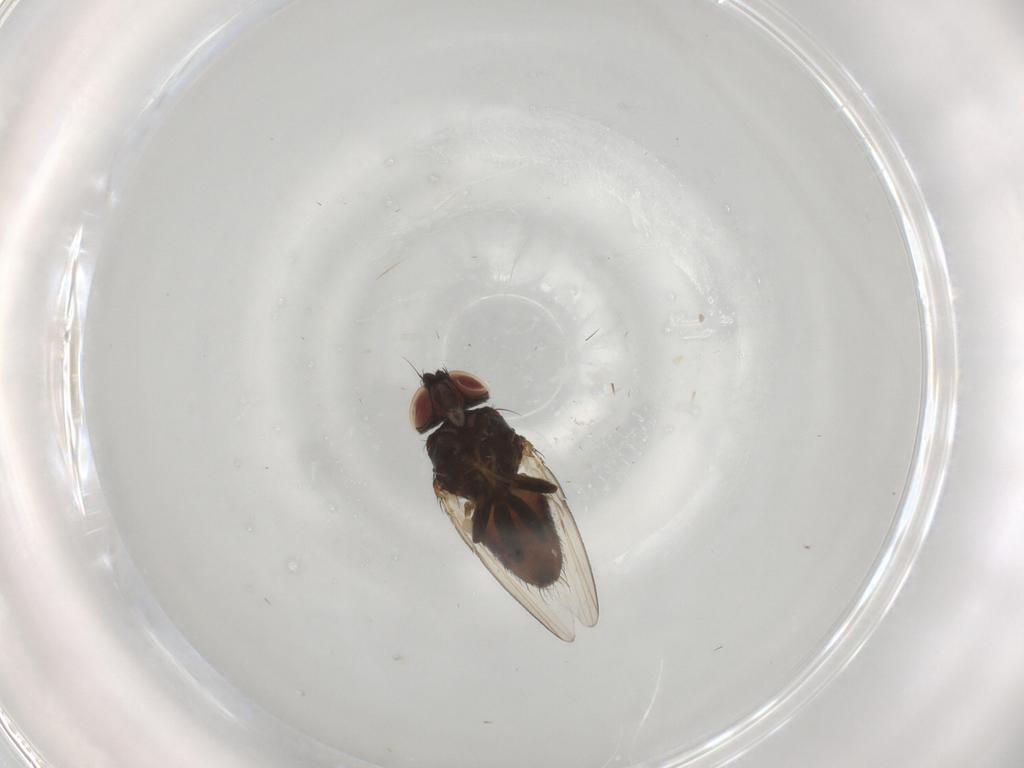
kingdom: Animalia
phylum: Arthropoda
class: Insecta
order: Diptera
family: Milichiidae
